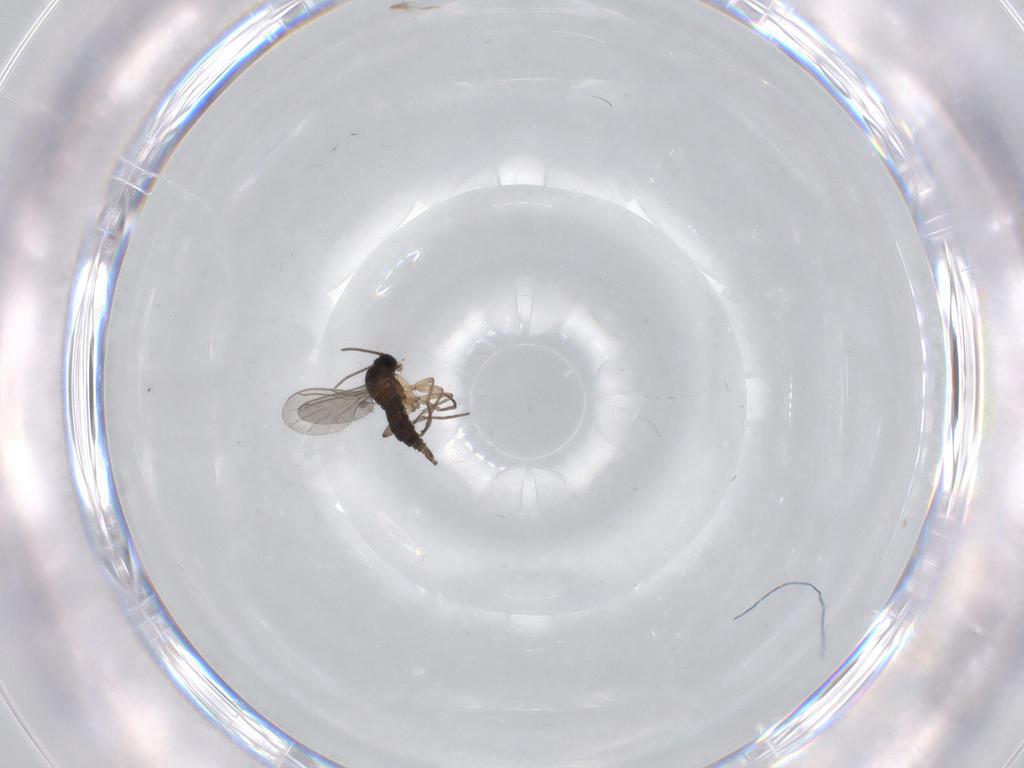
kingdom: Animalia
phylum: Arthropoda
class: Insecta
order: Diptera
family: Sciaridae
